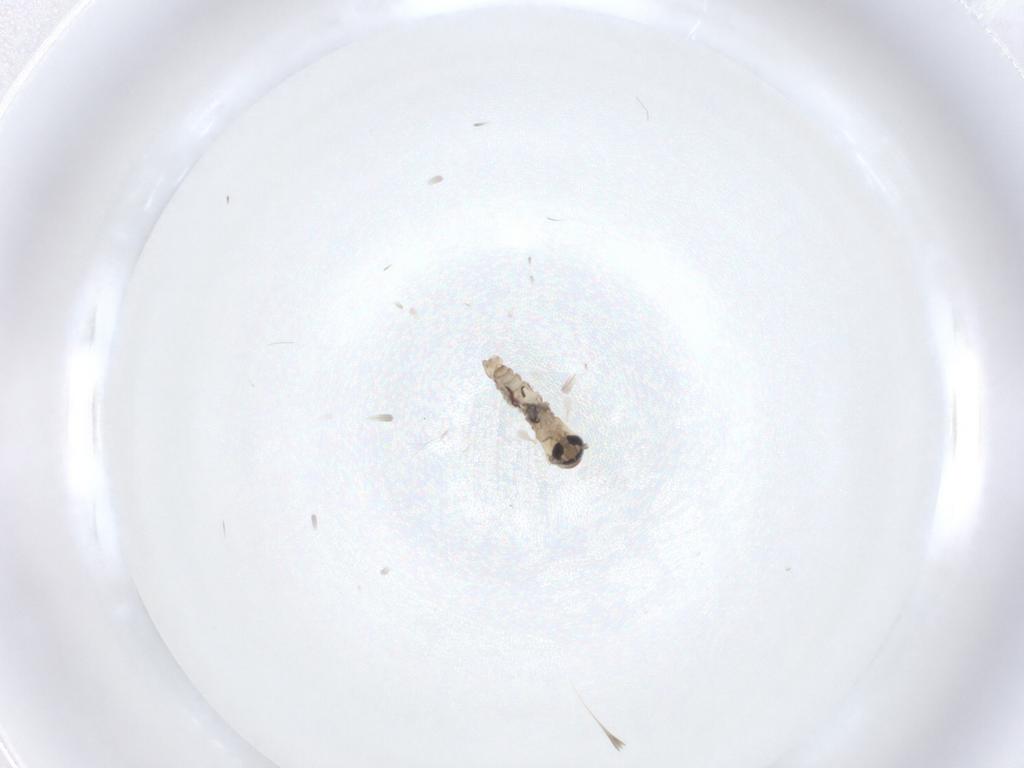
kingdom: Animalia
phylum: Arthropoda
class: Insecta
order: Diptera
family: Psychodidae
